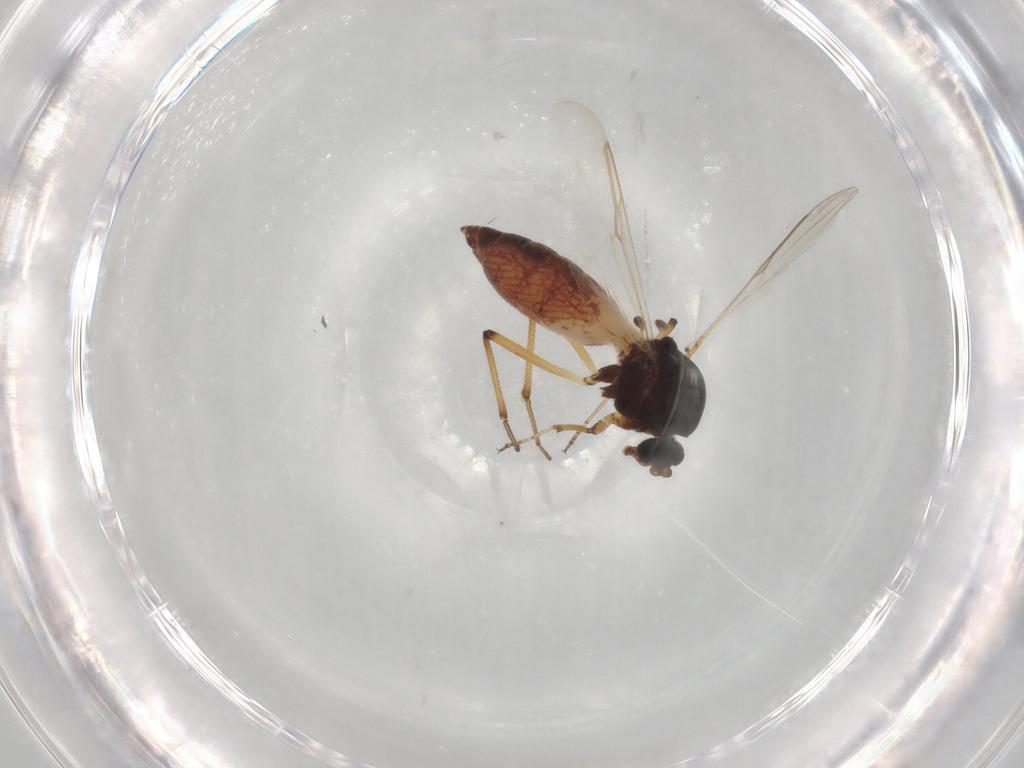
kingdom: Animalia
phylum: Arthropoda
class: Insecta
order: Diptera
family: Ceratopogonidae
